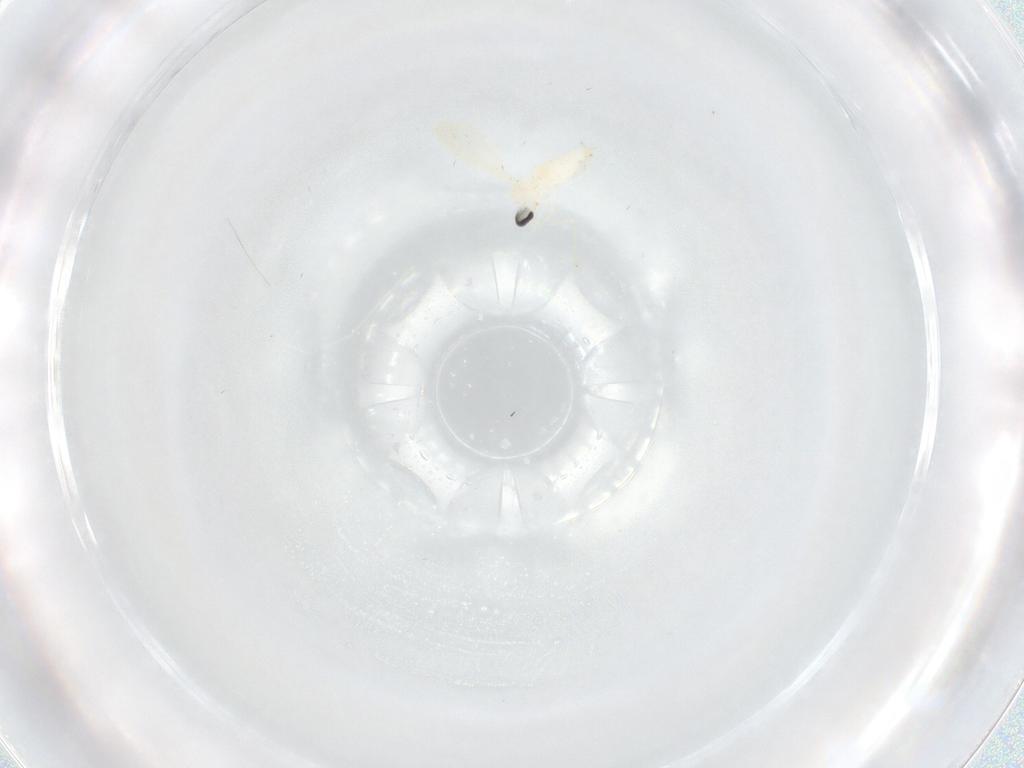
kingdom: Animalia
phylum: Arthropoda
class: Insecta
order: Diptera
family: Cecidomyiidae
